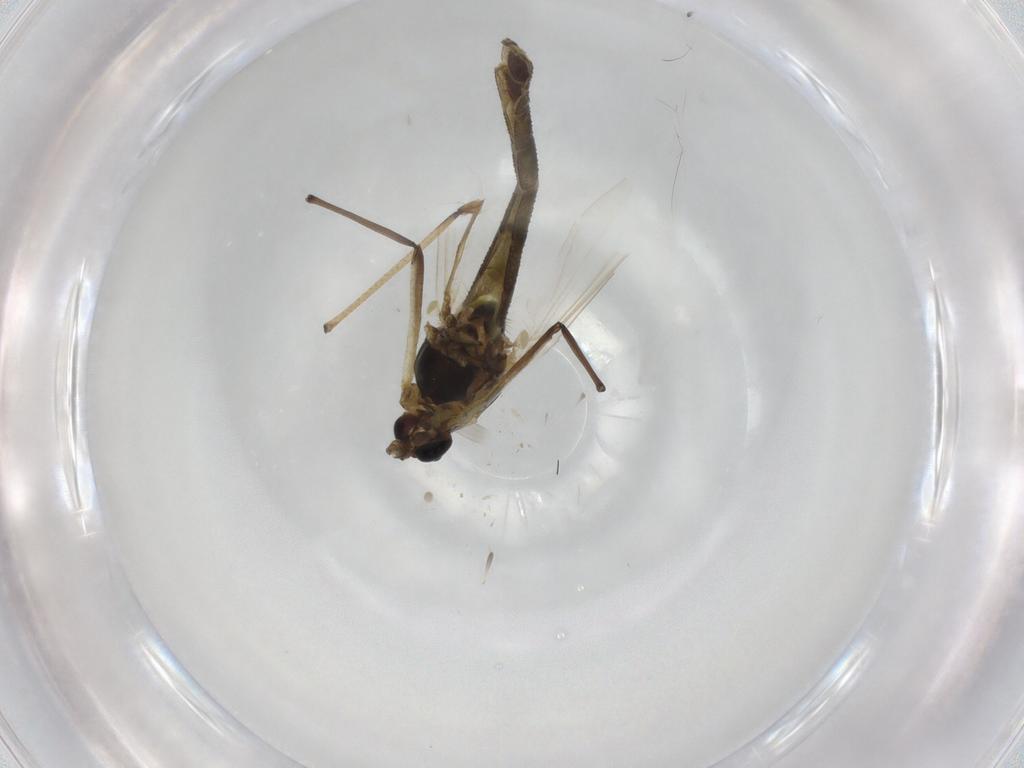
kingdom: Animalia
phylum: Arthropoda
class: Insecta
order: Diptera
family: Chironomidae
